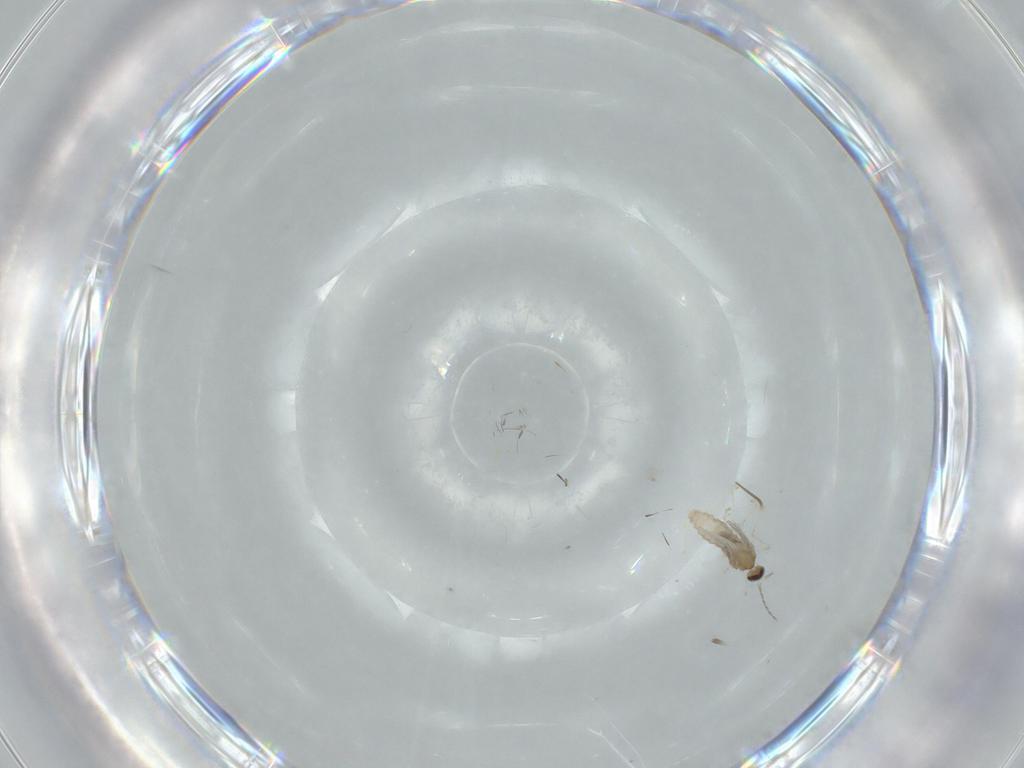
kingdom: Animalia
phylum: Arthropoda
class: Insecta
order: Diptera
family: Cecidomyiidae
